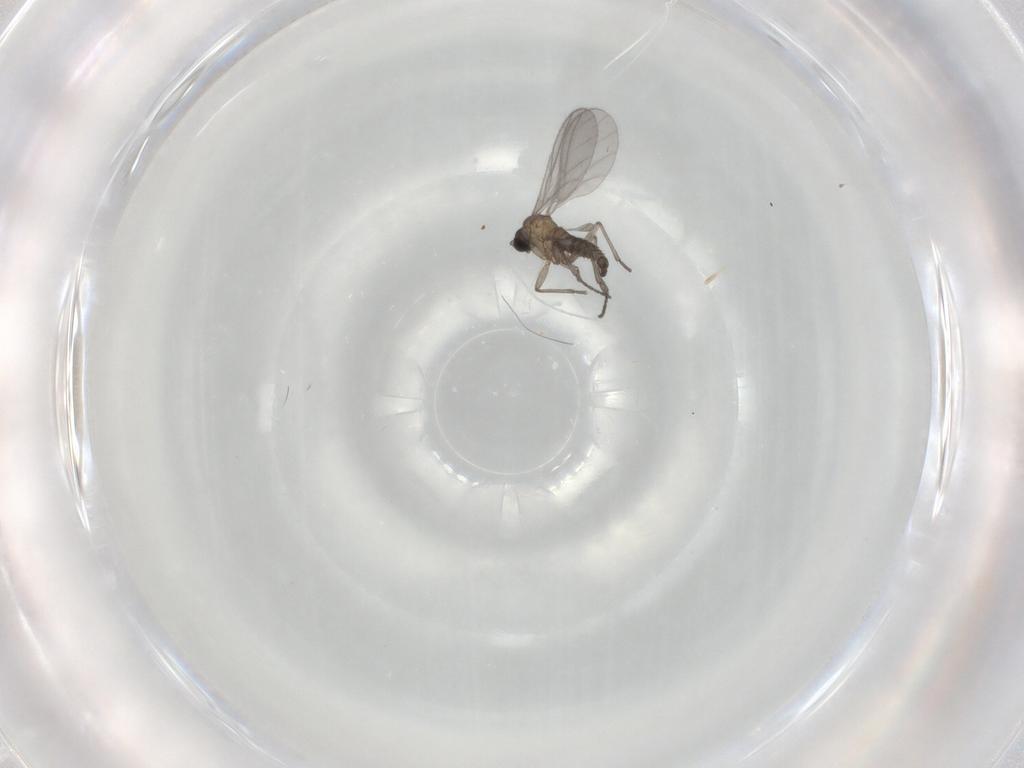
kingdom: Animalia
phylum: Arthropoda
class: Insecta
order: Diptera
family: Sciaridae
